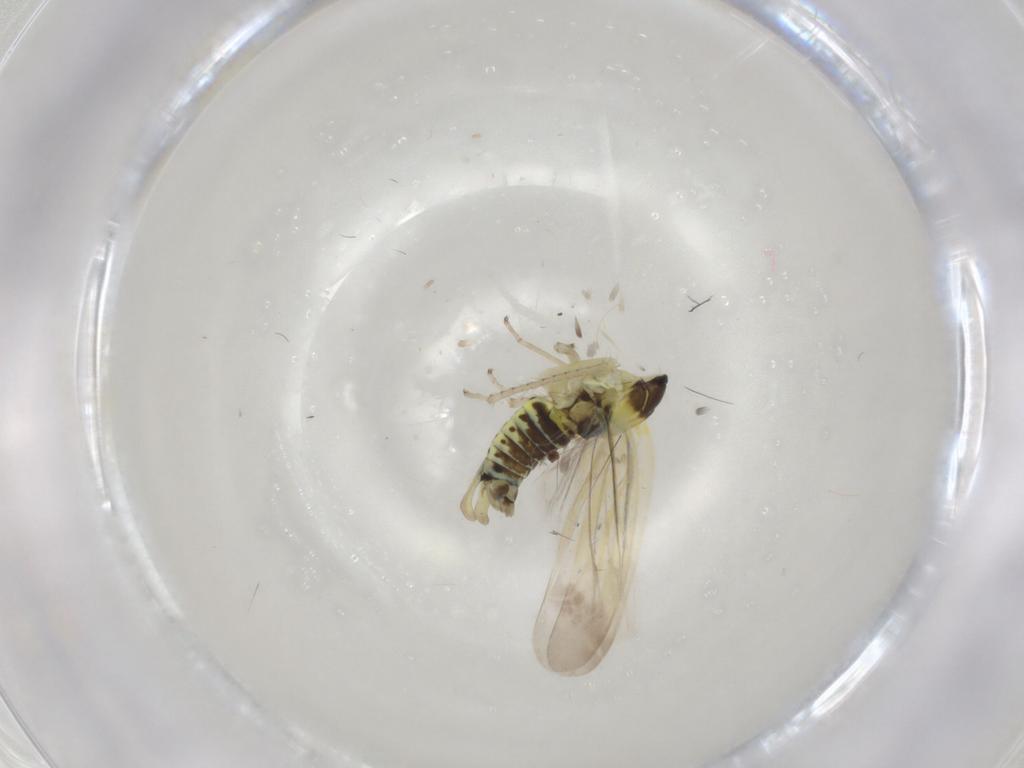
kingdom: Animalia
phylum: Arthropoda
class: Insecta
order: Hemiptera
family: Cicadellidae
